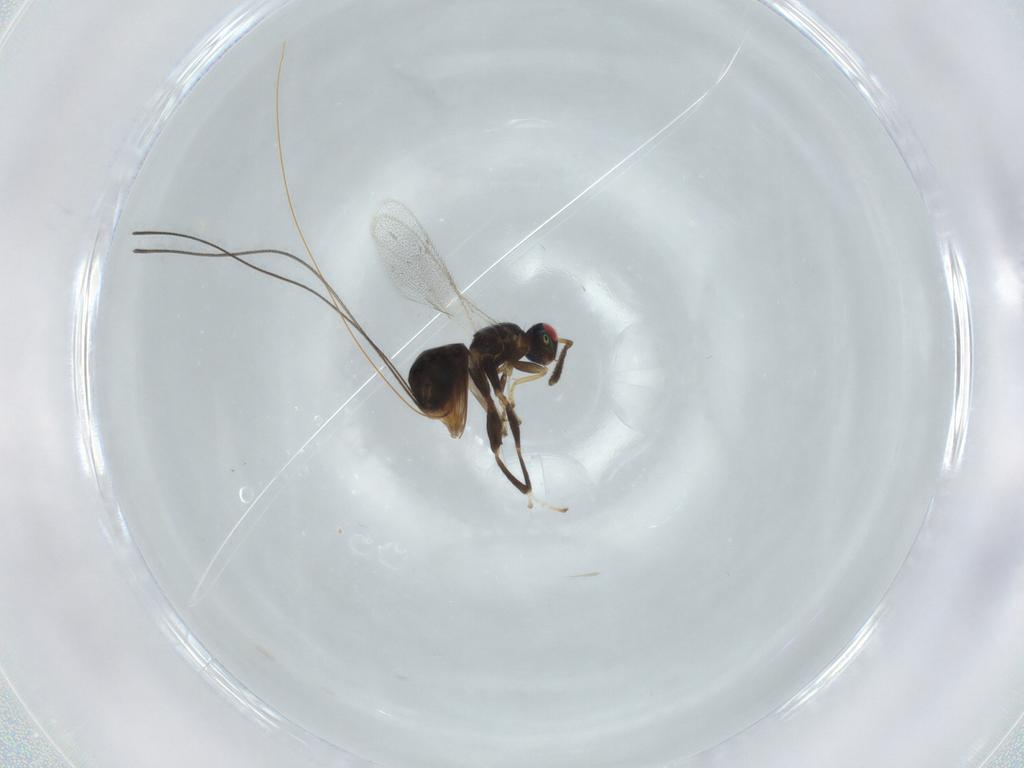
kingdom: Animalia
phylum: Arthropoda
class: Insecta
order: Hymenoptera
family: Torymidae
